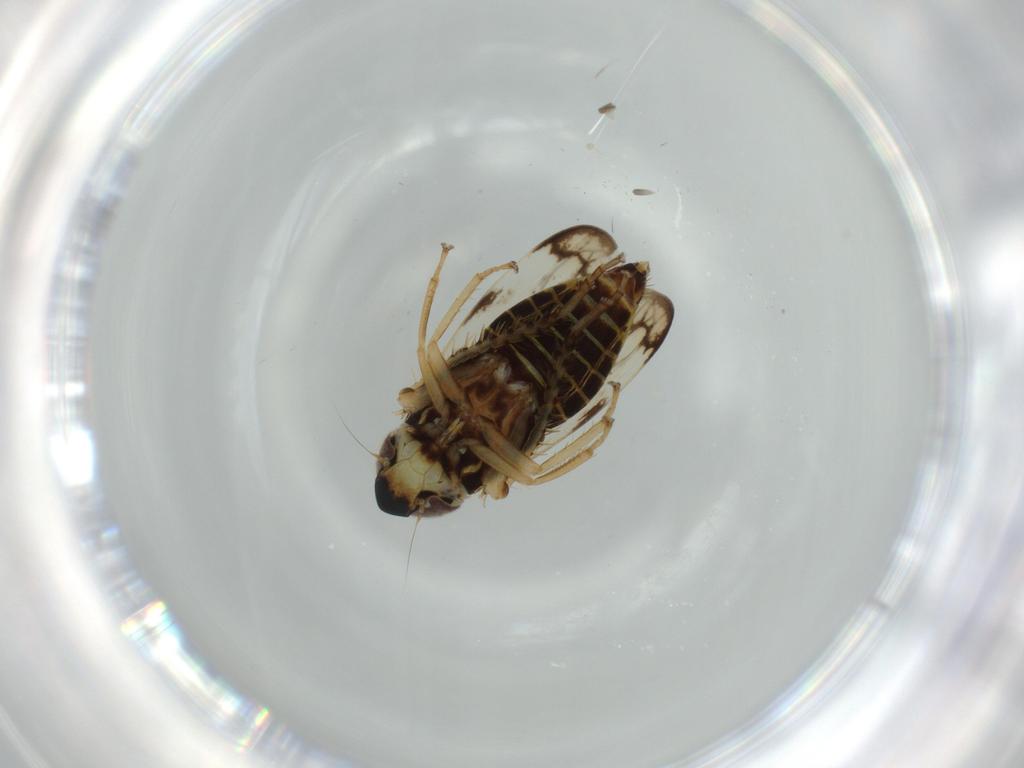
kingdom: Animalia
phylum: Arthropoda
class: Insecta
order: Hemiptera
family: Cicadellidae
